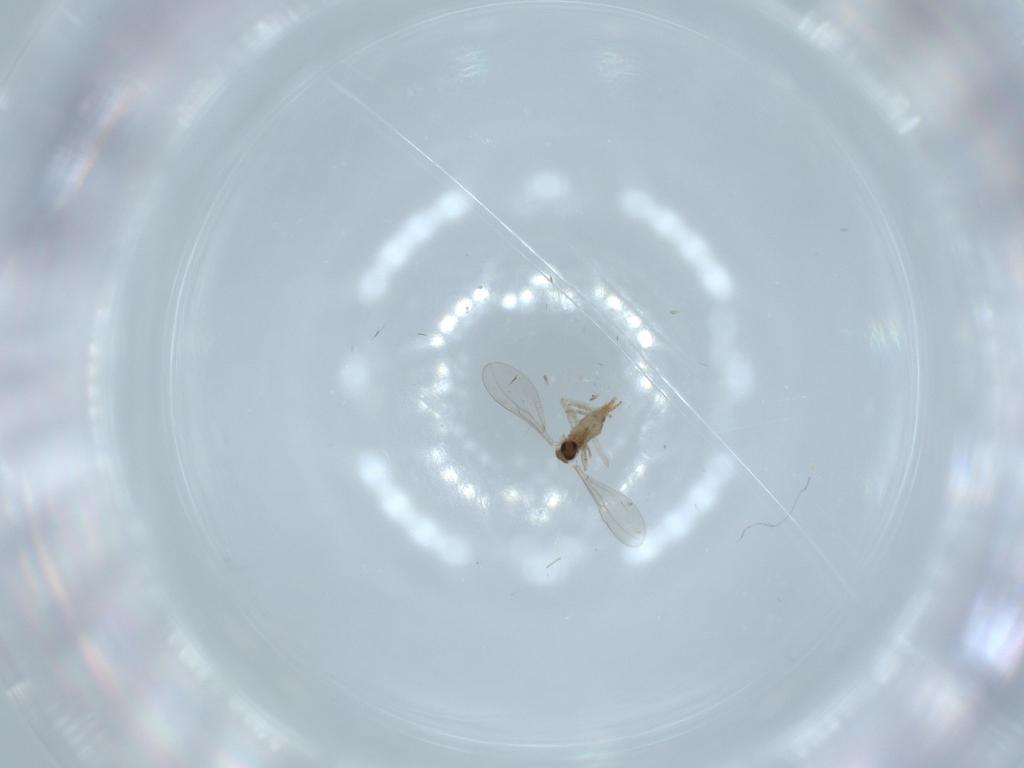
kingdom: Animalia
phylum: Arthropoda
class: Insecta
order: Diptera
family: Cecidomyiidae
